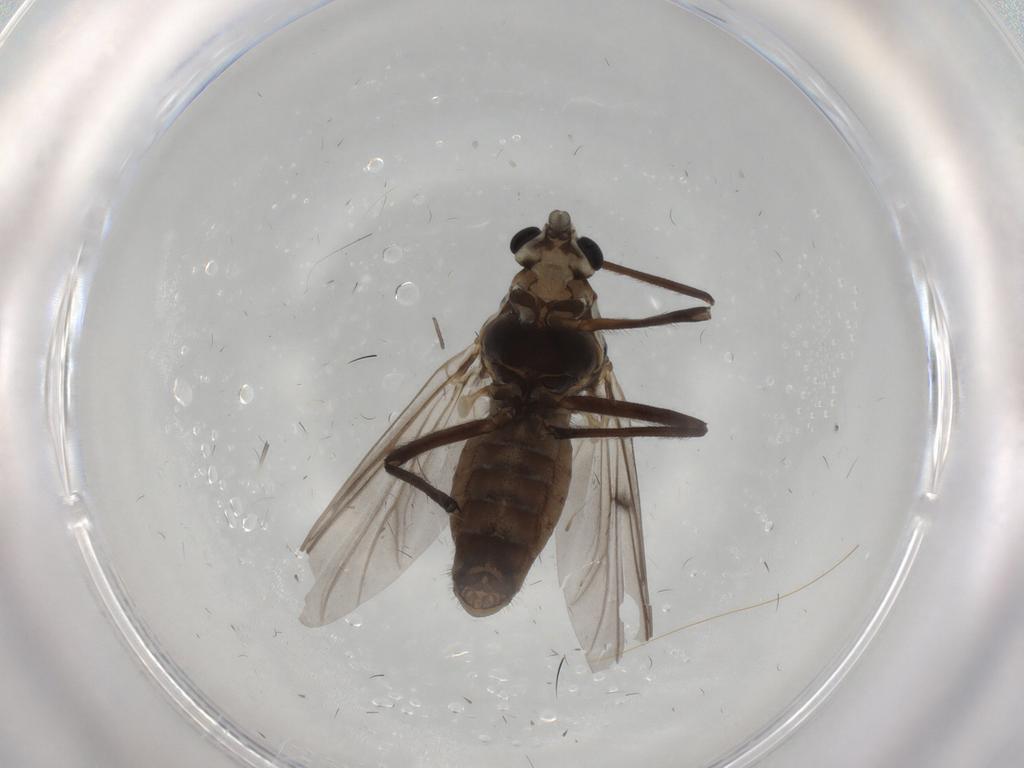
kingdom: Animalia
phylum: Arthropoda
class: Insecta
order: Diptera
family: Chironomidae
